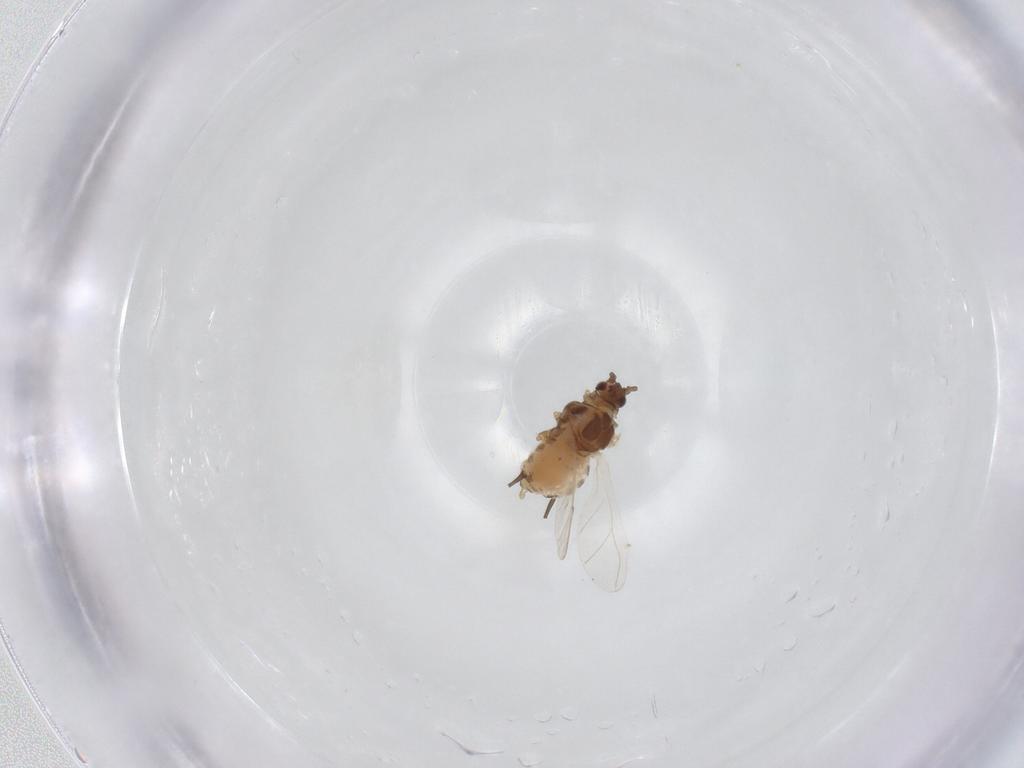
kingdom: Animalia
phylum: Arthropoda
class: Insecta
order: Hemiptera
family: Aphididae
